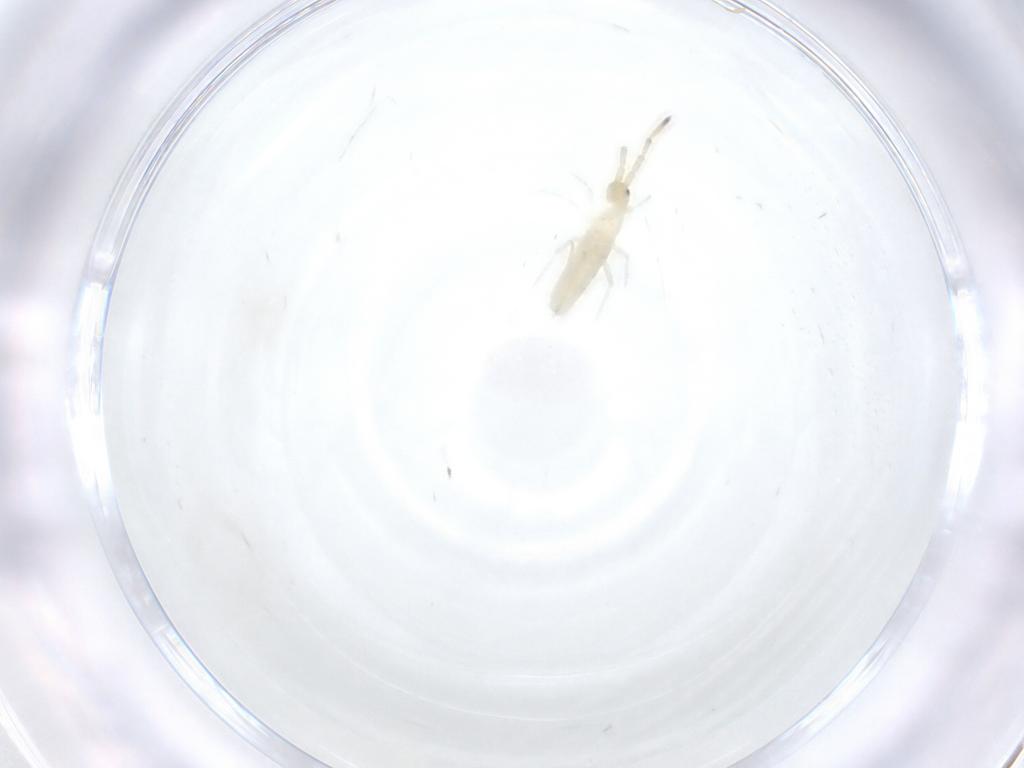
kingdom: Animalia
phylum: Arthropoda
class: Collembola
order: Entomobryomorpha
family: Entomobryidae
